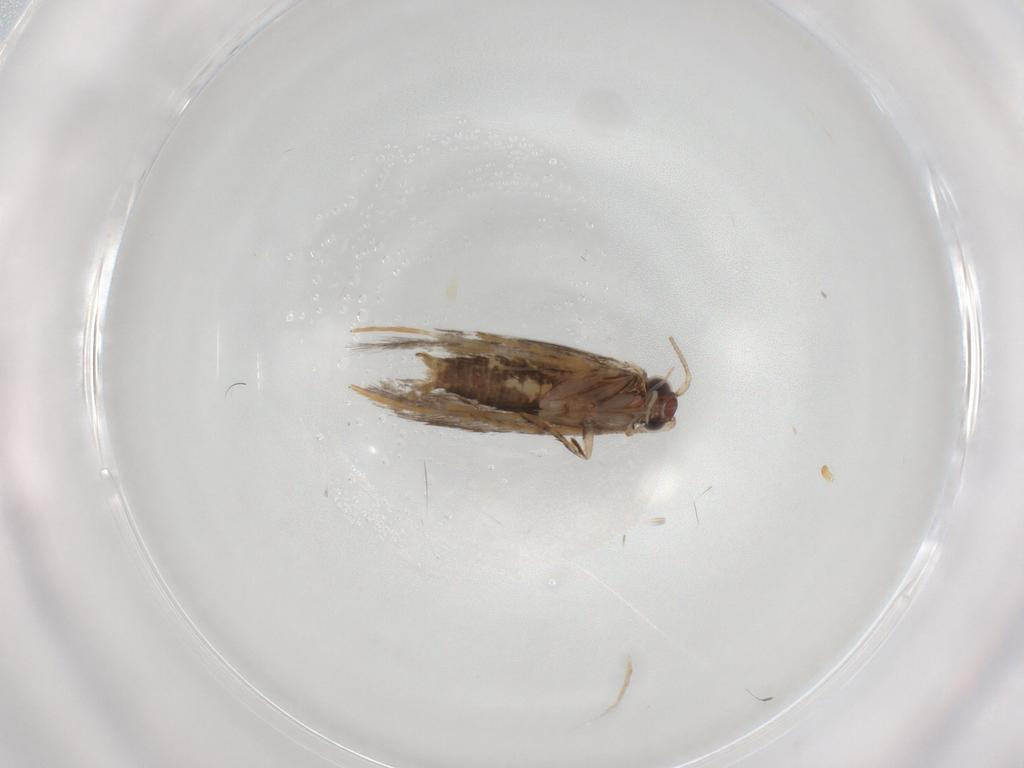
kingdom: Animalia
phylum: Arthropoda
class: Insecta
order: Lepidoptera
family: Tineidae
